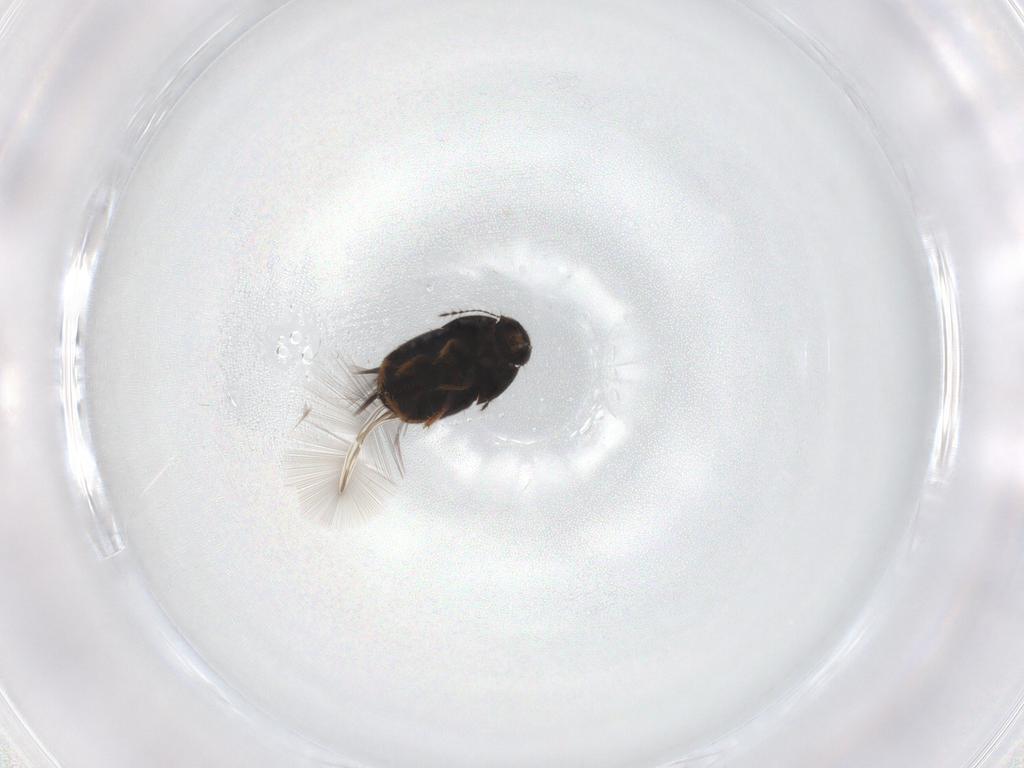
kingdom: Animalia
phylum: Arthropoda
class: Insecta
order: Coleoptera
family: Ptiliidae
